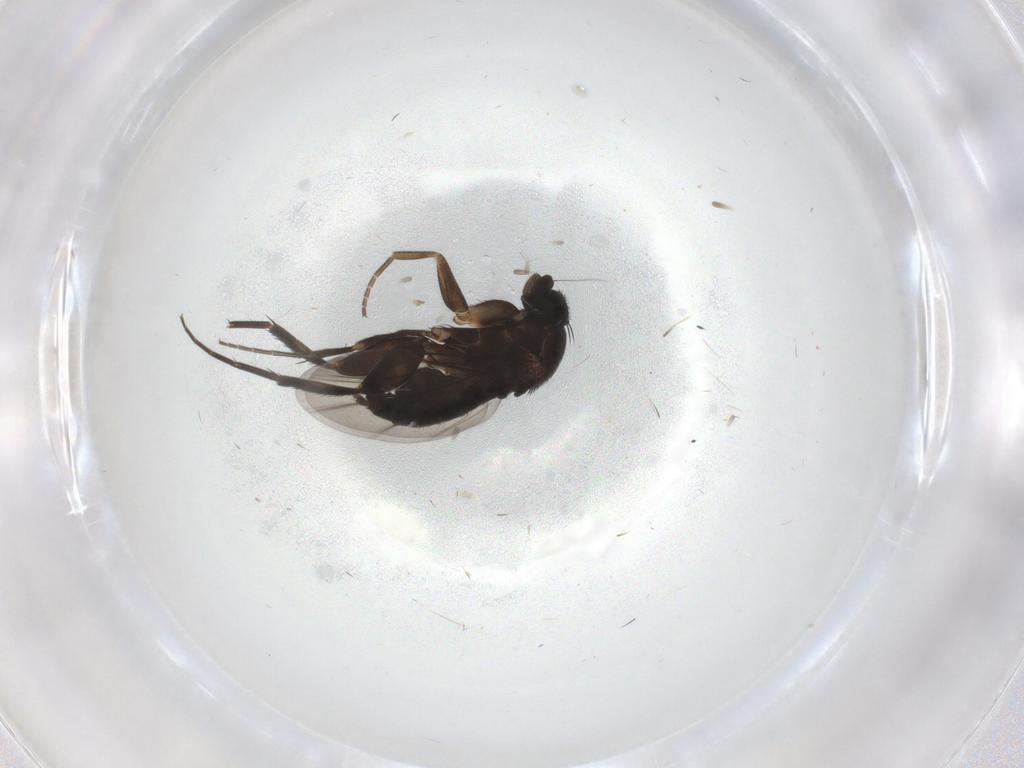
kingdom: Animalia
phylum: Arthropoda
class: Insecta
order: Diptera
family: Phoridae
